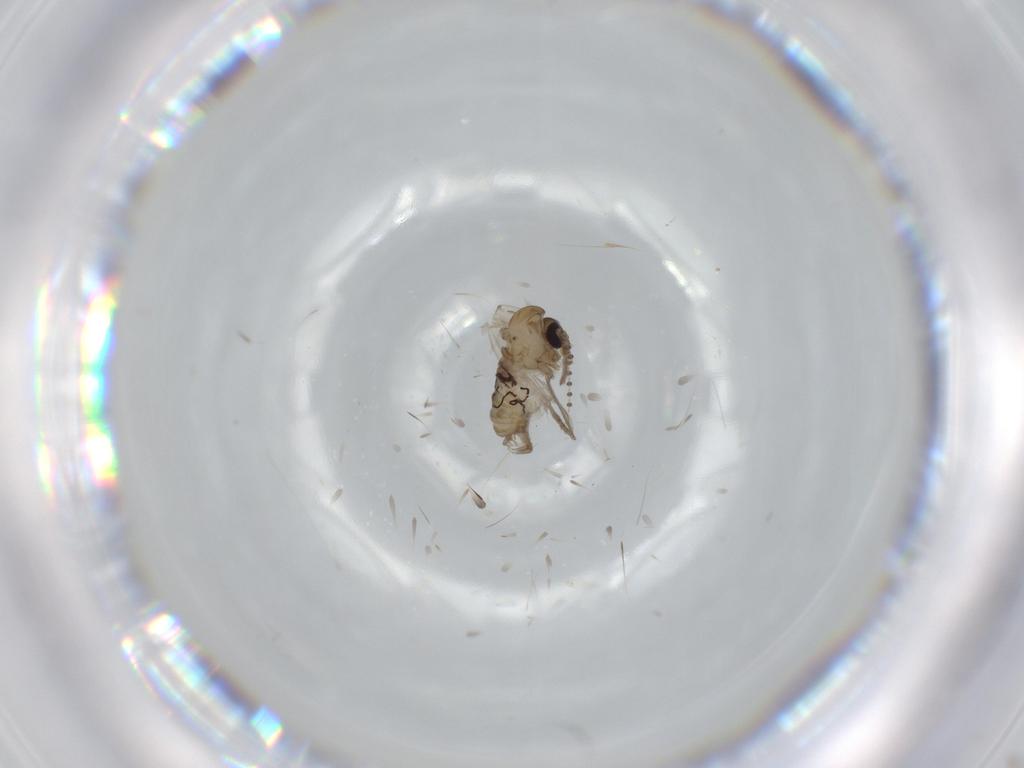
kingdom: Animalia
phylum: Arthropoda
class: Insecta
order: Diptera
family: Psychodidae
